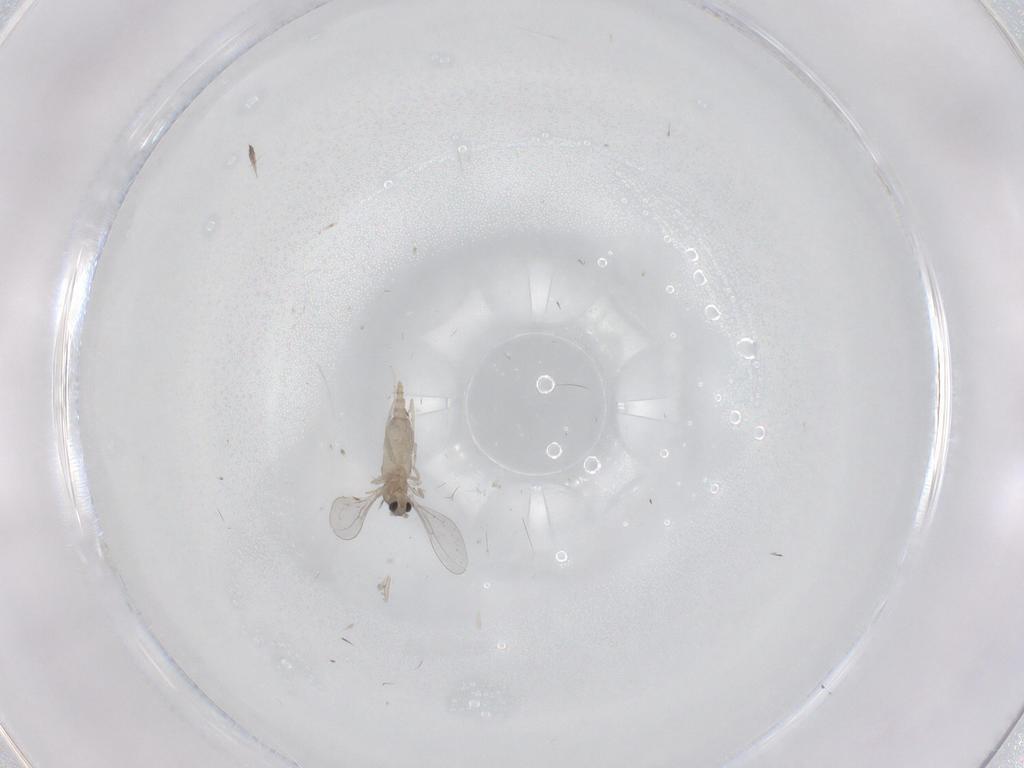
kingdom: Animalia
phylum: Arthropoda
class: Insecta
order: Diptera
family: Cecidomyiidae
